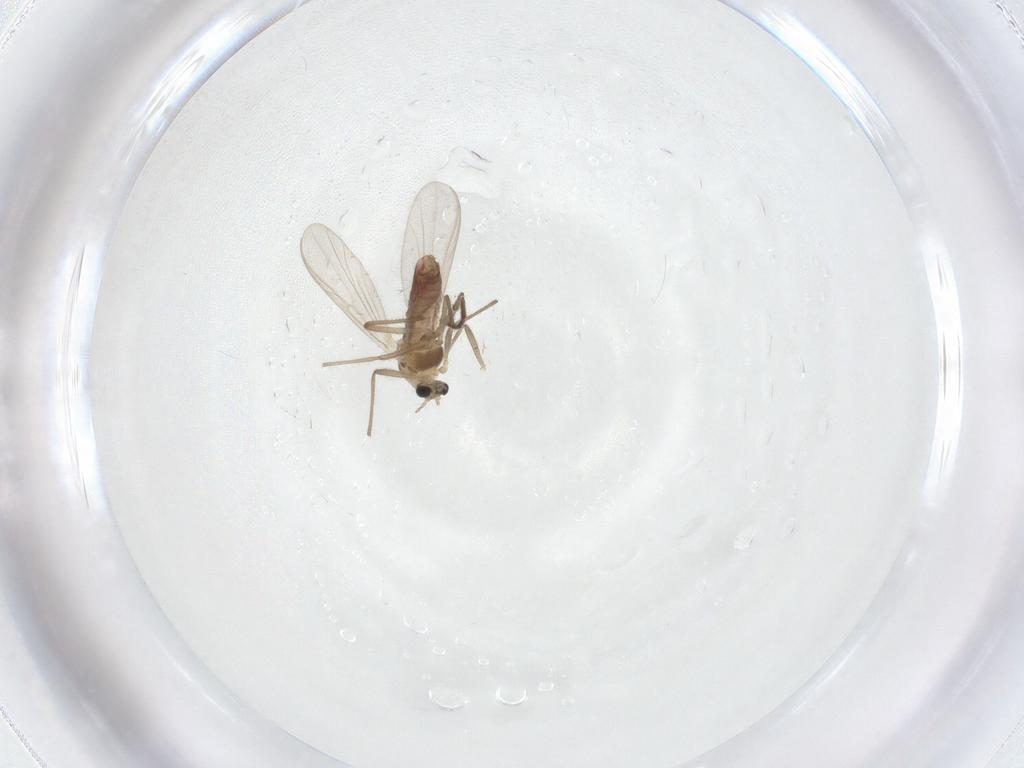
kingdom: Animalia
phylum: Arthropoda
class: Insecta
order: Diptera
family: Chironomidae
